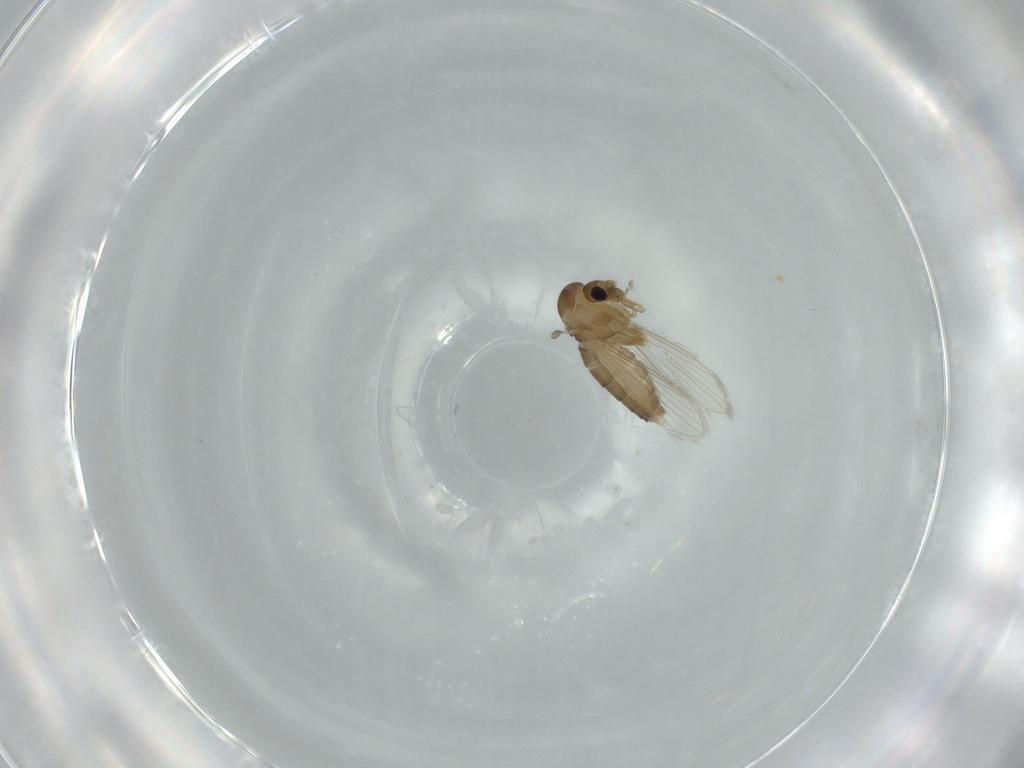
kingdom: Animalia
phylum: Arthropoda
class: Insecta
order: Diptera
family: Psychodidae
